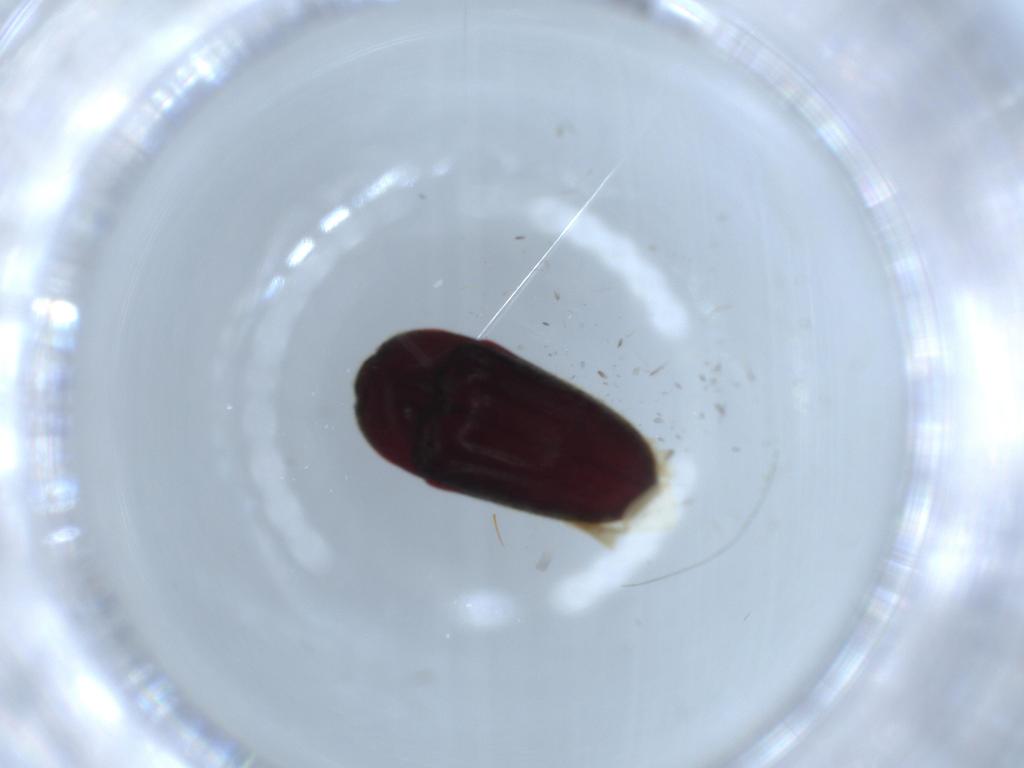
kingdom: Animalia
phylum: Arthropoda
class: Insecta
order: Coleoptera
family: Throscidae
